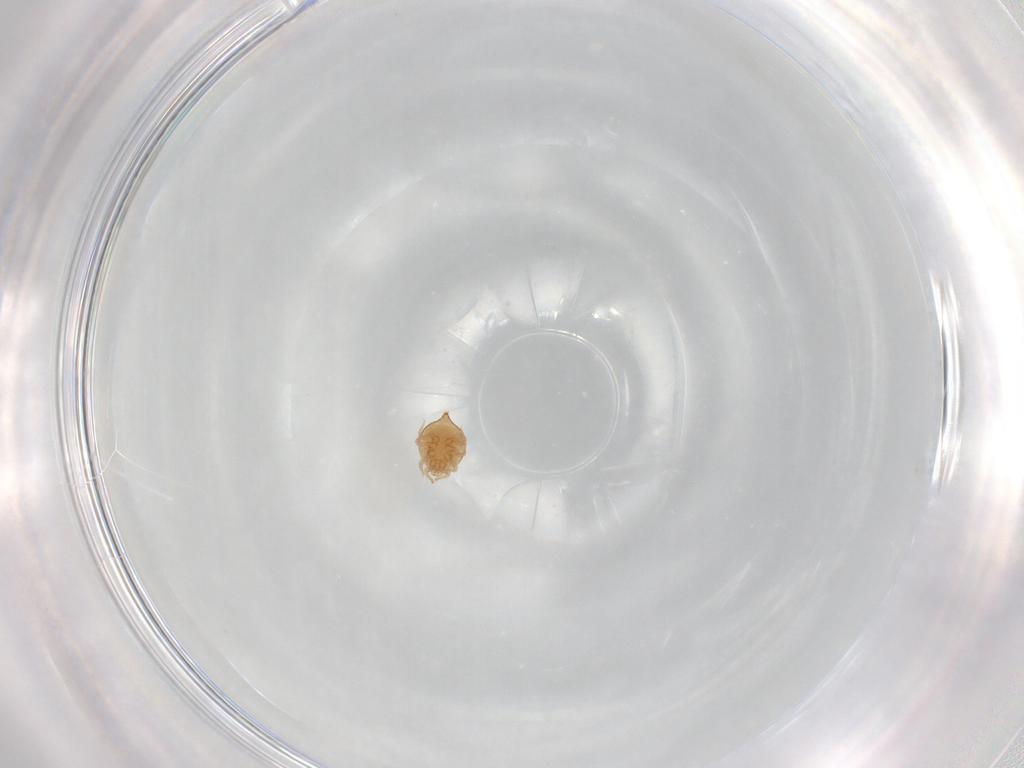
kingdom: Animalia
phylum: Arthropoda
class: Arachnida
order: Mesostigmata
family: Polyaspididae
